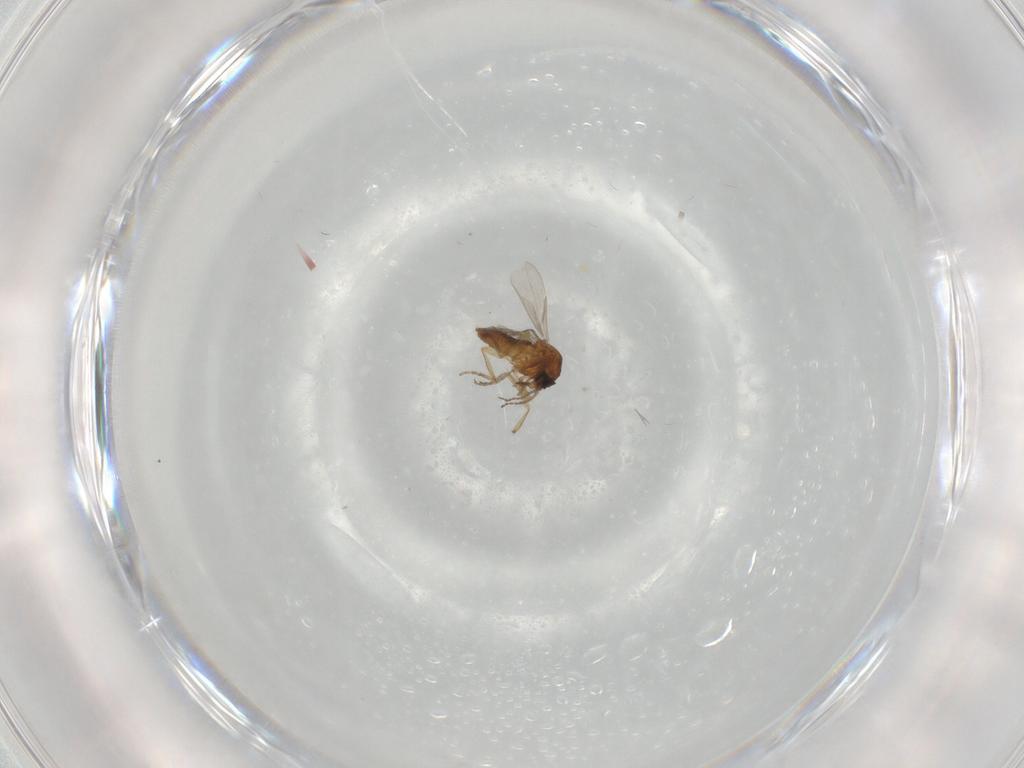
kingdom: Animalia
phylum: Arthropoda
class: Insecta
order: Diptera
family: Ceratopogonidae
